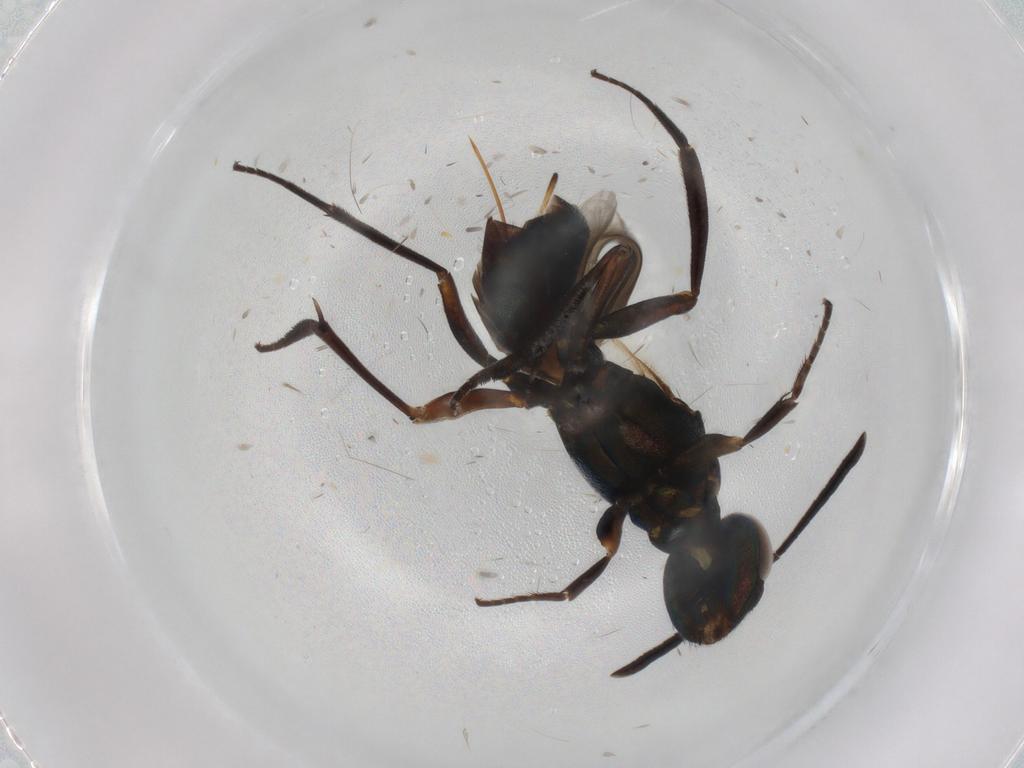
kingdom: Animalia
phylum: Arthropoda
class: Insecta
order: Hymenoptera
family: Eupelmidae
